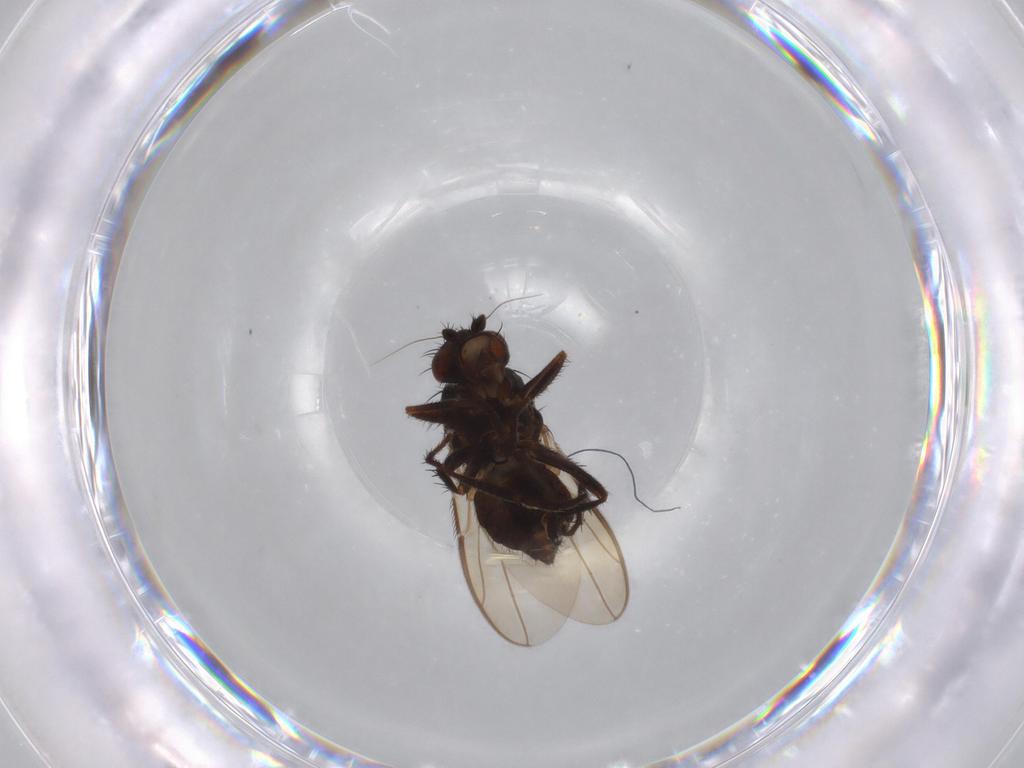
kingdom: Animalia
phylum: Arthropoda
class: Insecta
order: Diptera
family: Sphaeroceridae
